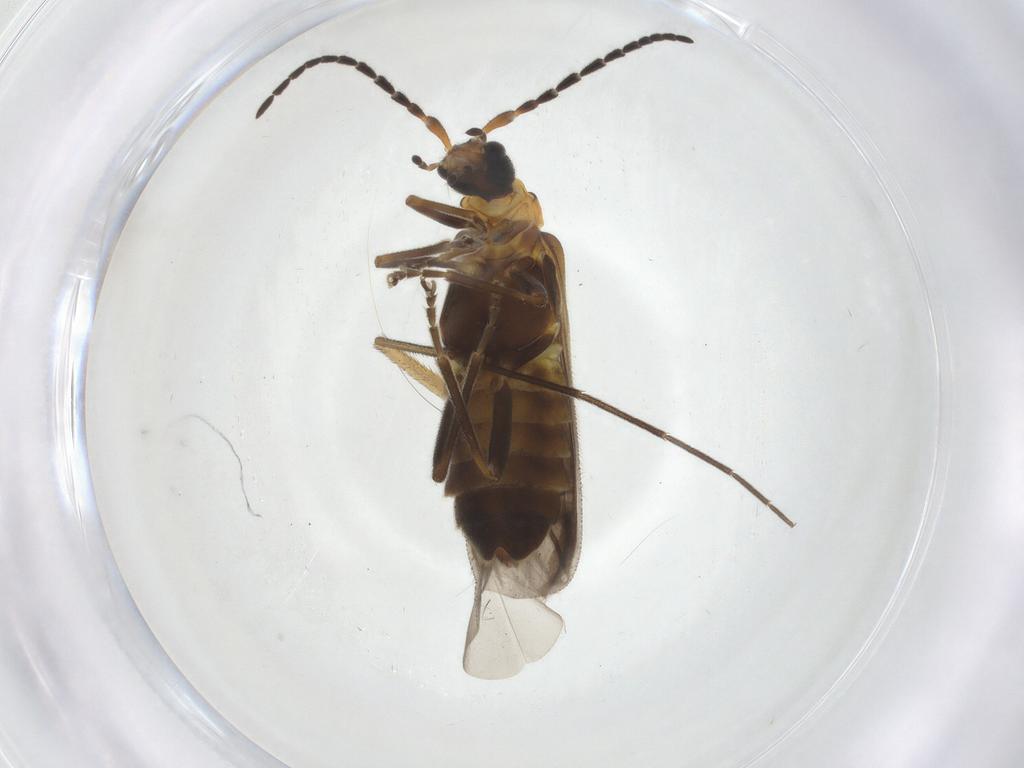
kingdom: Animalia
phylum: Arthropoda
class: Insecta
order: Coleoptera
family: Cantharidae
